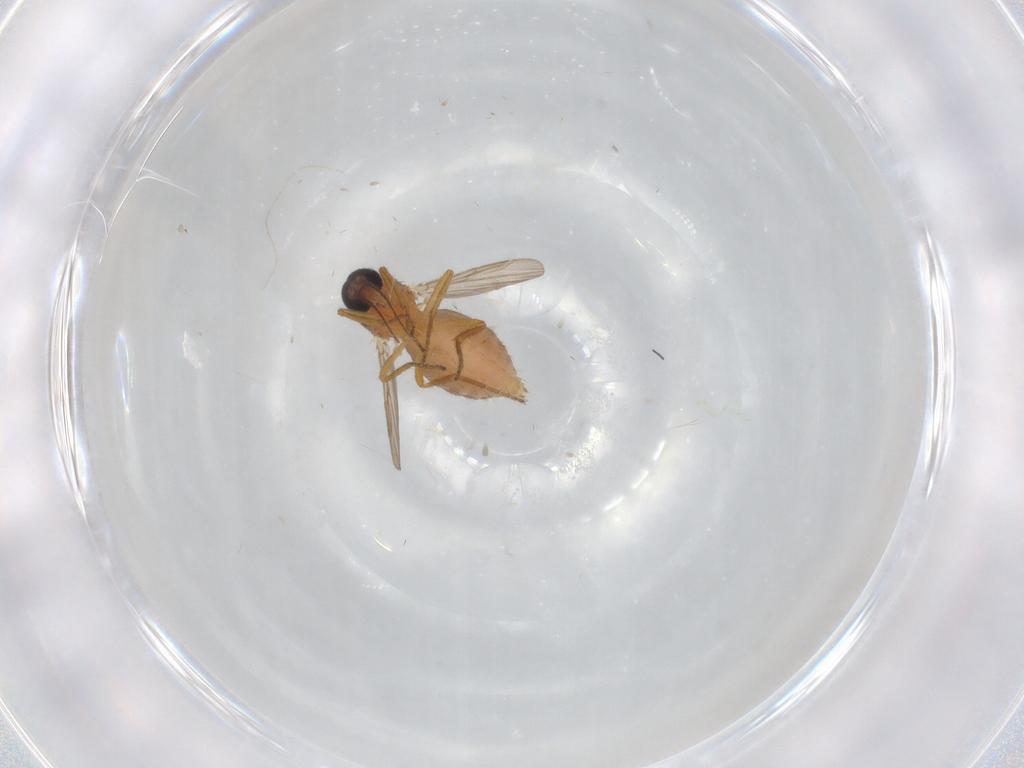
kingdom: Animalia
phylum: Arthropoda
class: Insecta
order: Diptera
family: Ceratopogonidae
